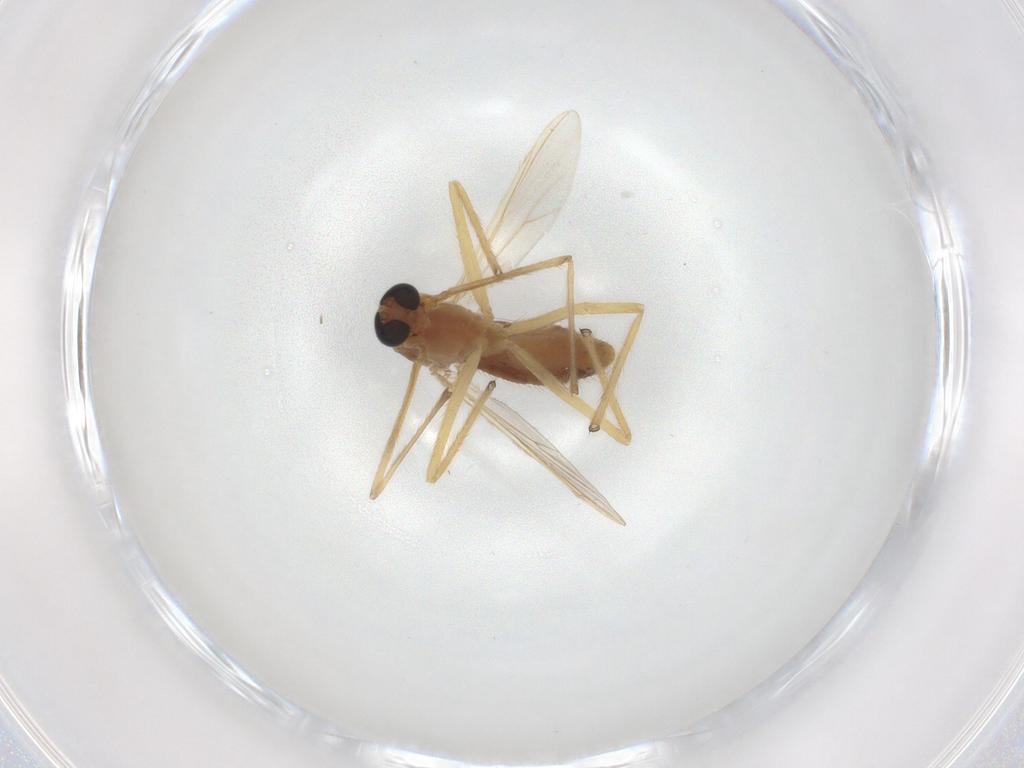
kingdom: Animalia
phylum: Arthropoda
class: Insecta
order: Diptera
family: Chironomidae
